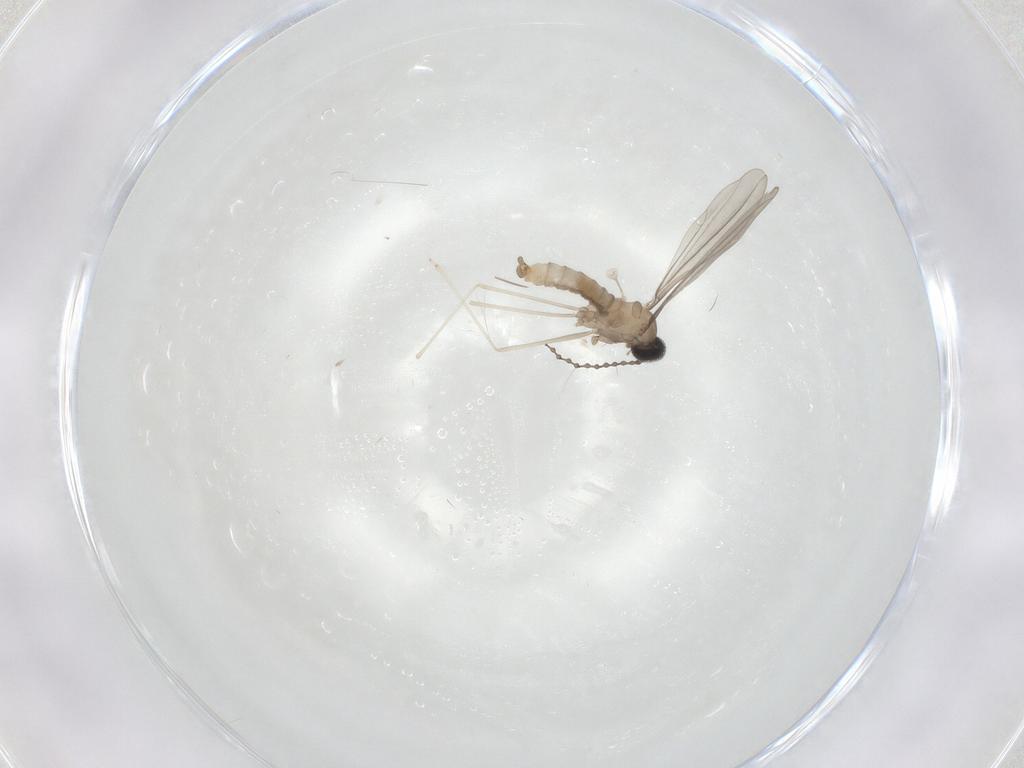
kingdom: Animalia
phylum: Arthropoda
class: Insecta
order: Diptera
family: Cecidomyiidae
